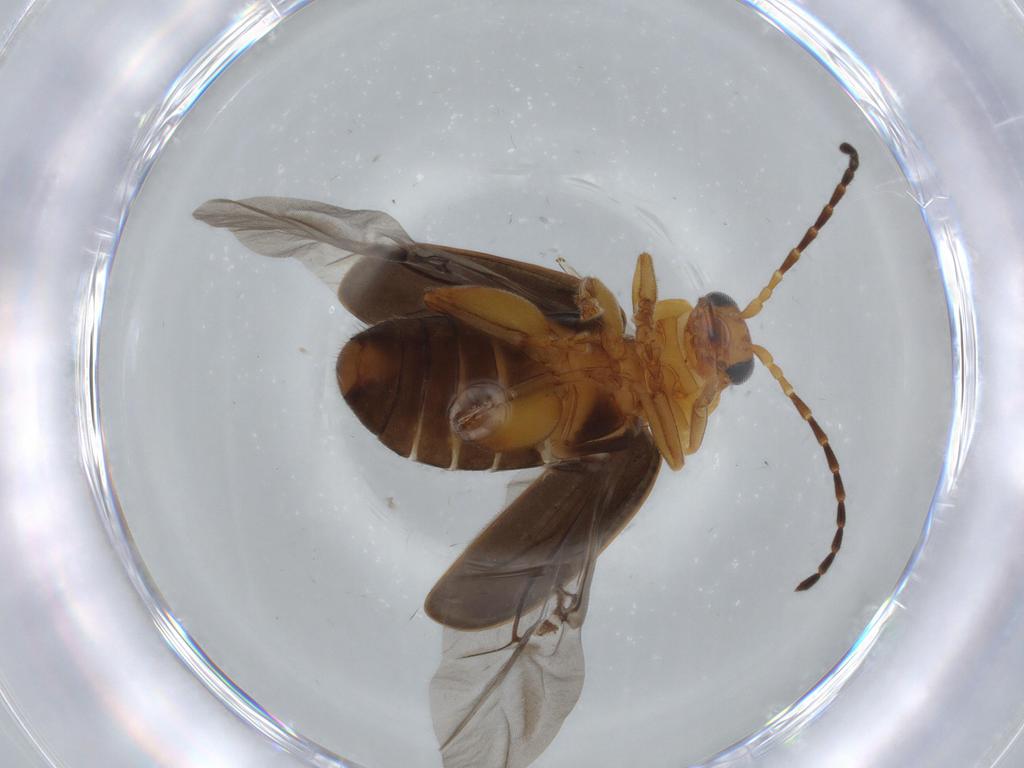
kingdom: Animalia
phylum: Arthropoda
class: Insecta
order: Coleoptera
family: Chrysomelidae
